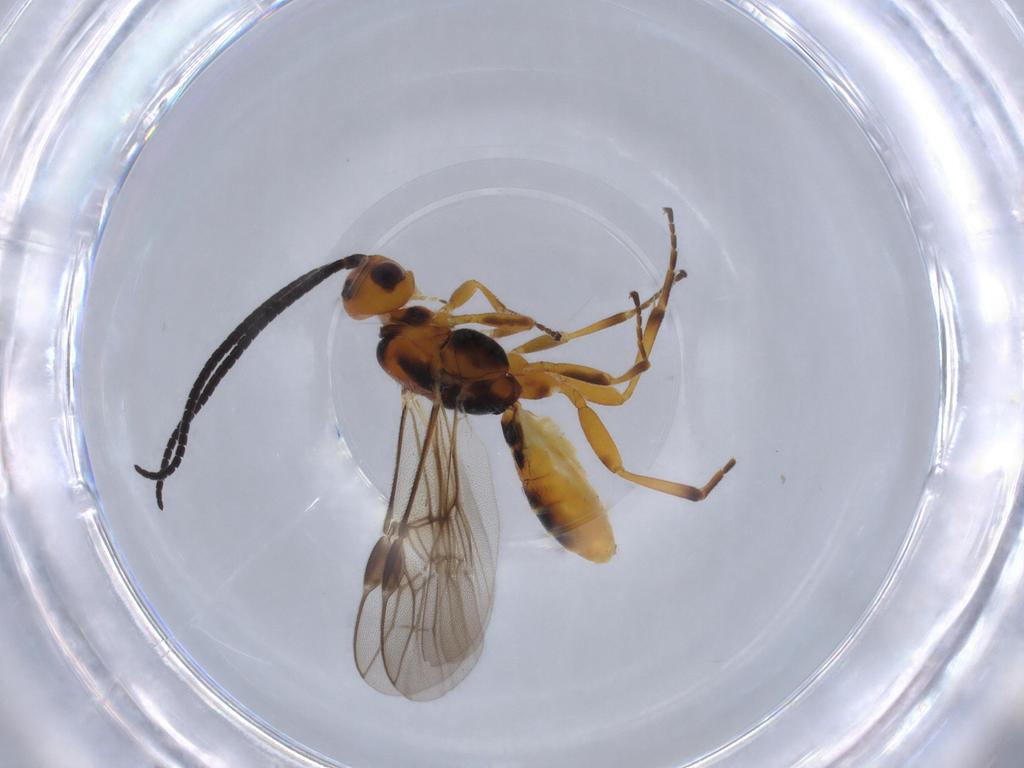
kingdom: Animalia
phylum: Arthropoda
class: Insecta
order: Hymenoptera
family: Braconidae
